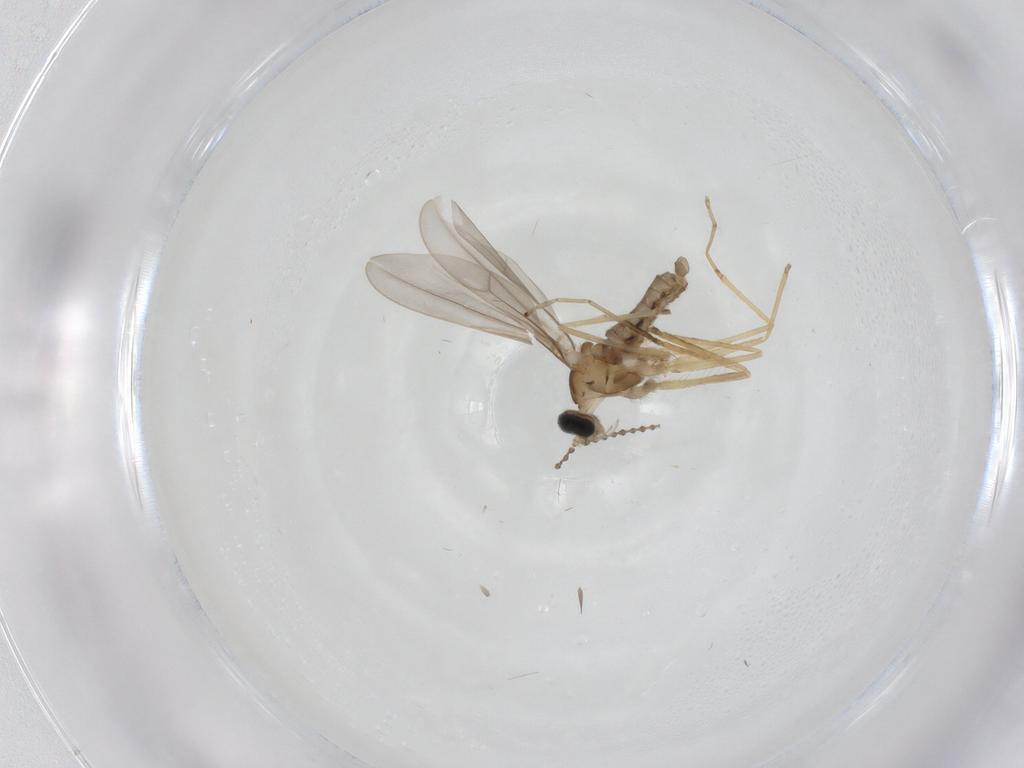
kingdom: Animalia
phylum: Arthropoda
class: Insecta
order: Diptera
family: Cecidomyiidae
